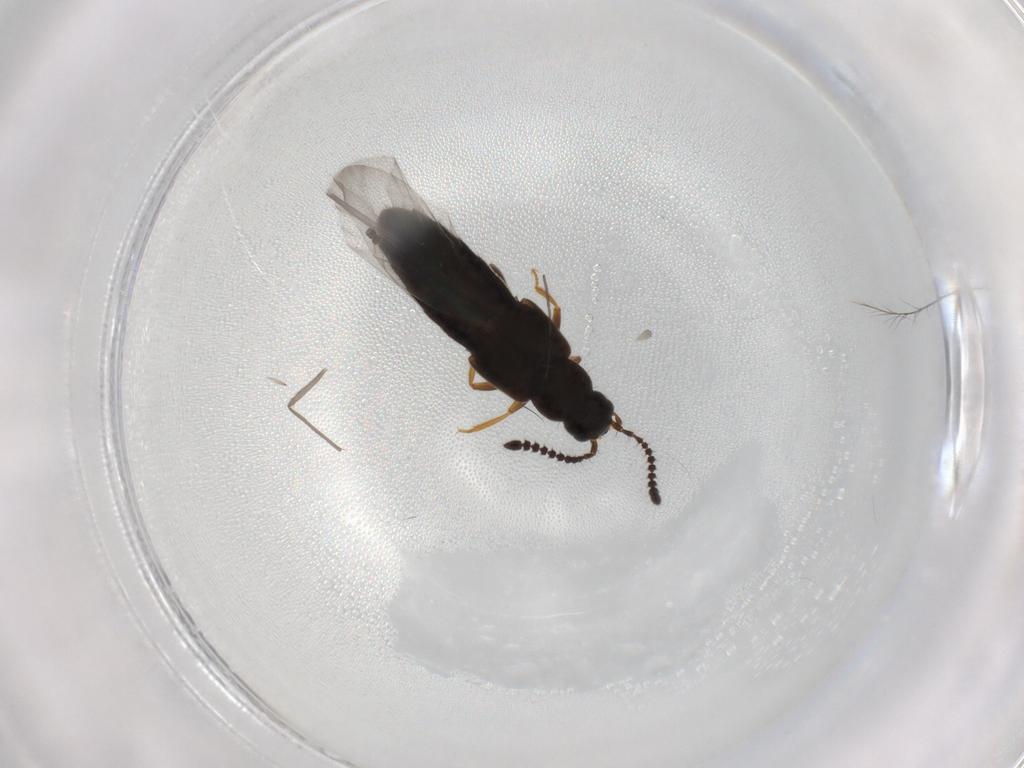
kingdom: Animalia
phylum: Arthropoda
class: Insecta
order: Coleoptera
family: Staphylinidae
